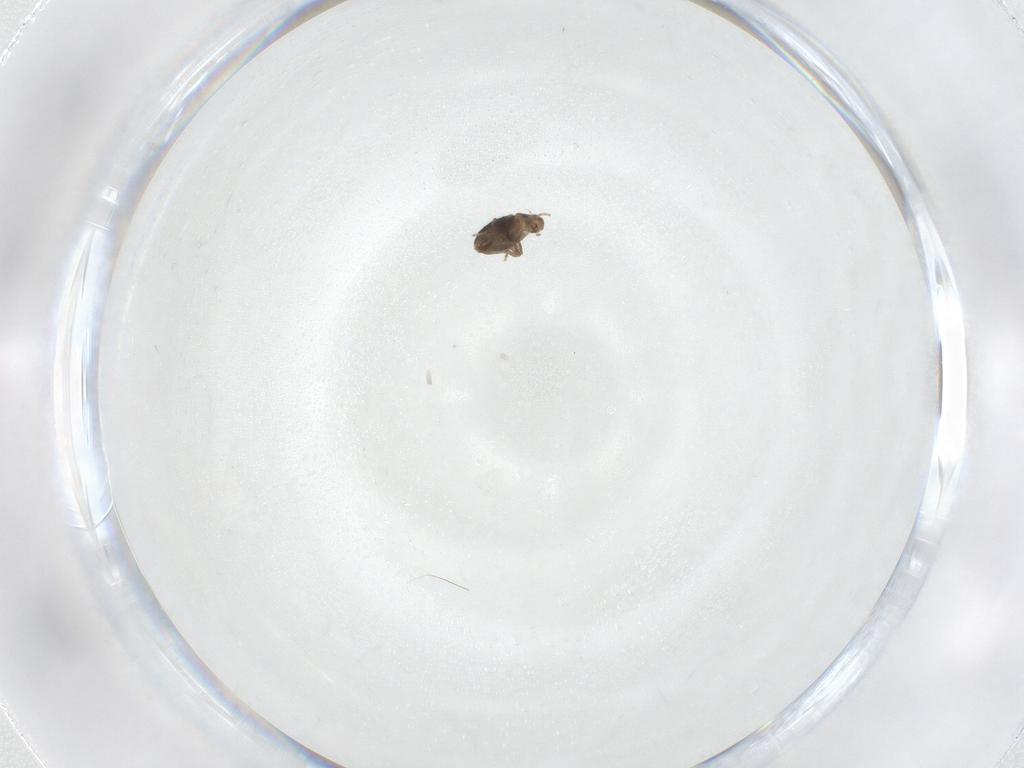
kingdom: Animalia
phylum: Arthropoda
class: Insecta
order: Diptera
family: Phoridae
